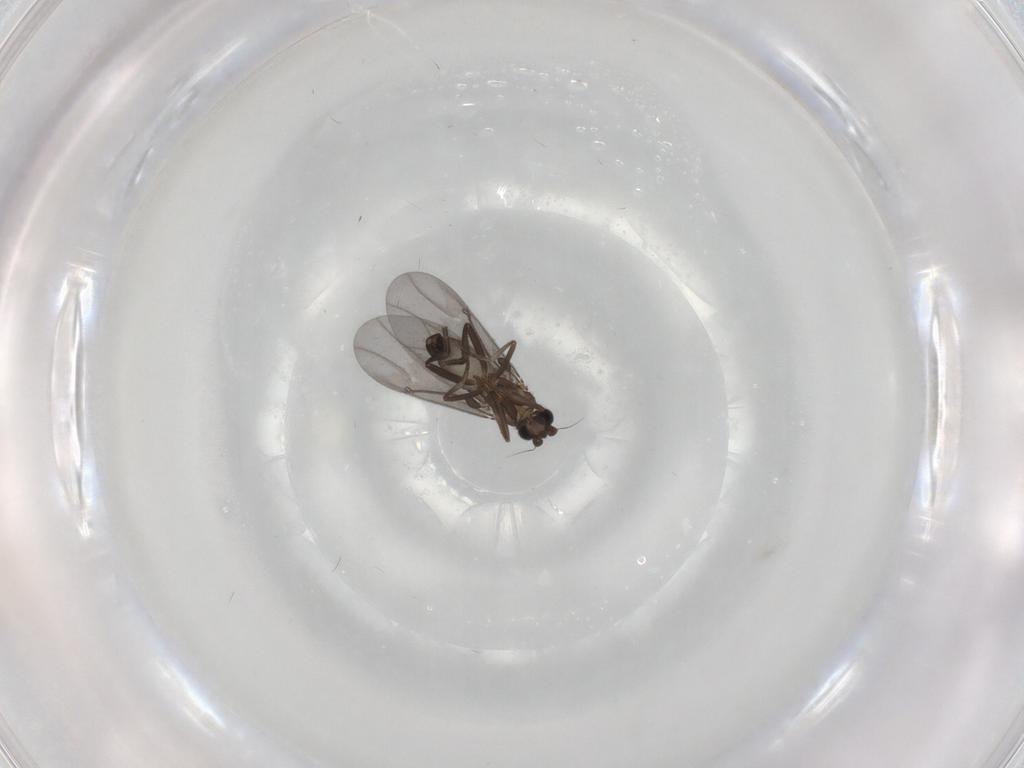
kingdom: Animalia
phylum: Arthropoda
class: Insecta
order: Diptera
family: Phoridae
